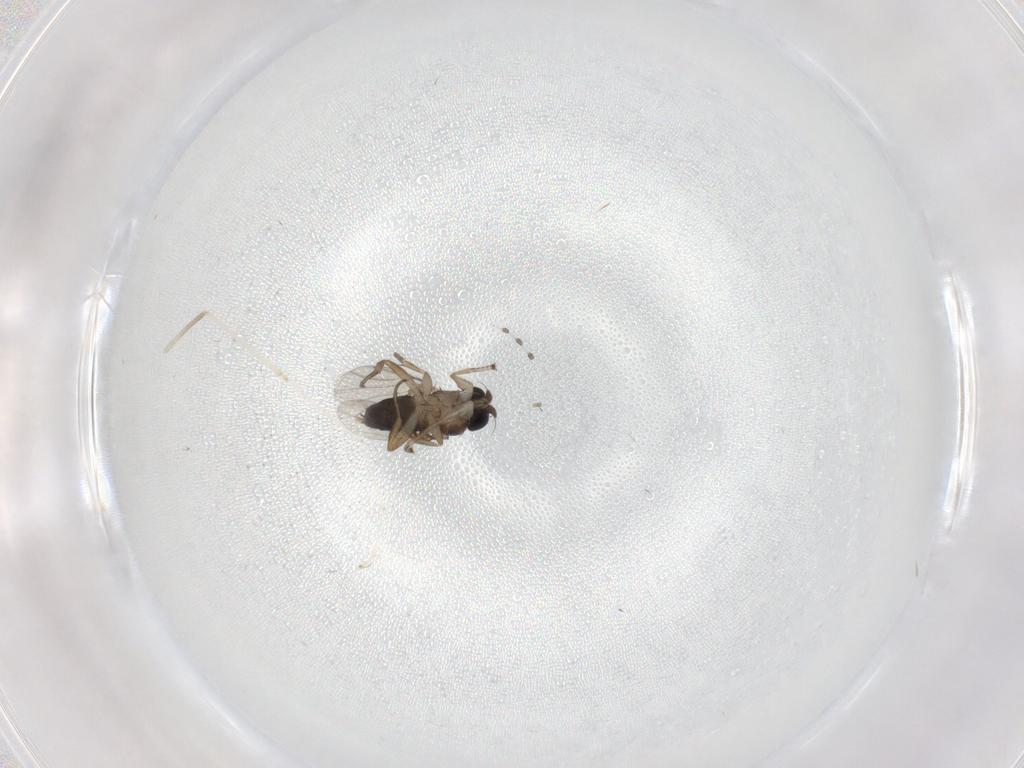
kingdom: Animalia
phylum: Arthropoda
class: Insecta
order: Diptera
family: Phoridae
